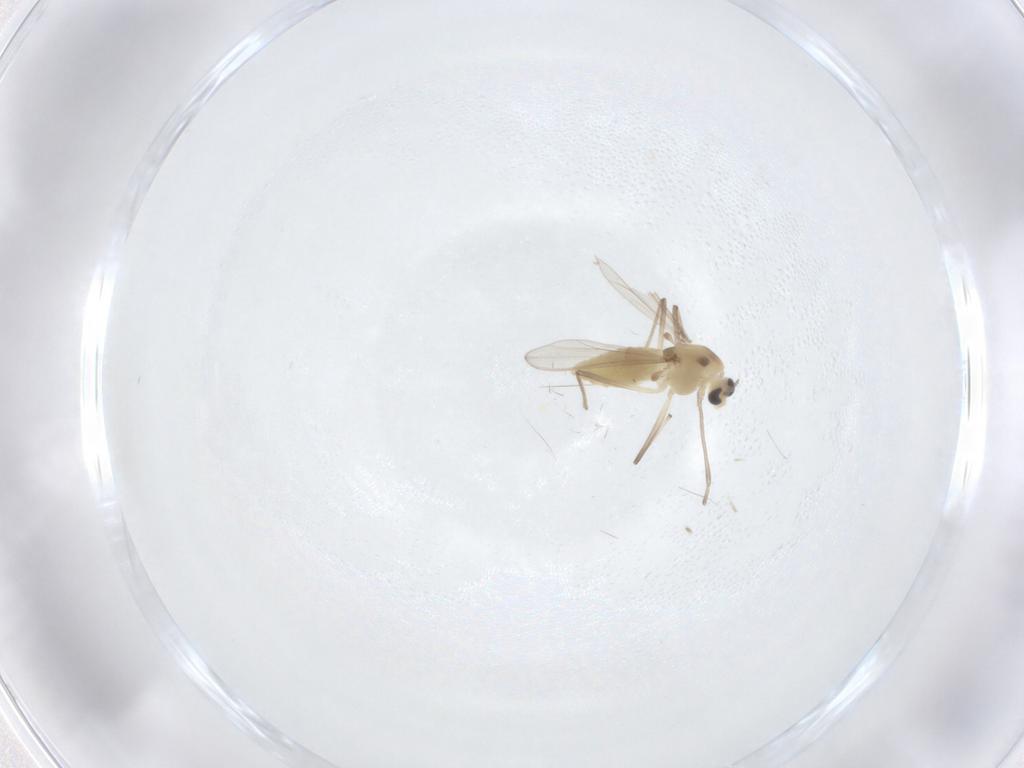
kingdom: Animalia
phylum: Arthropoda
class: Insecta
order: Diptera
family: Chironomidae
